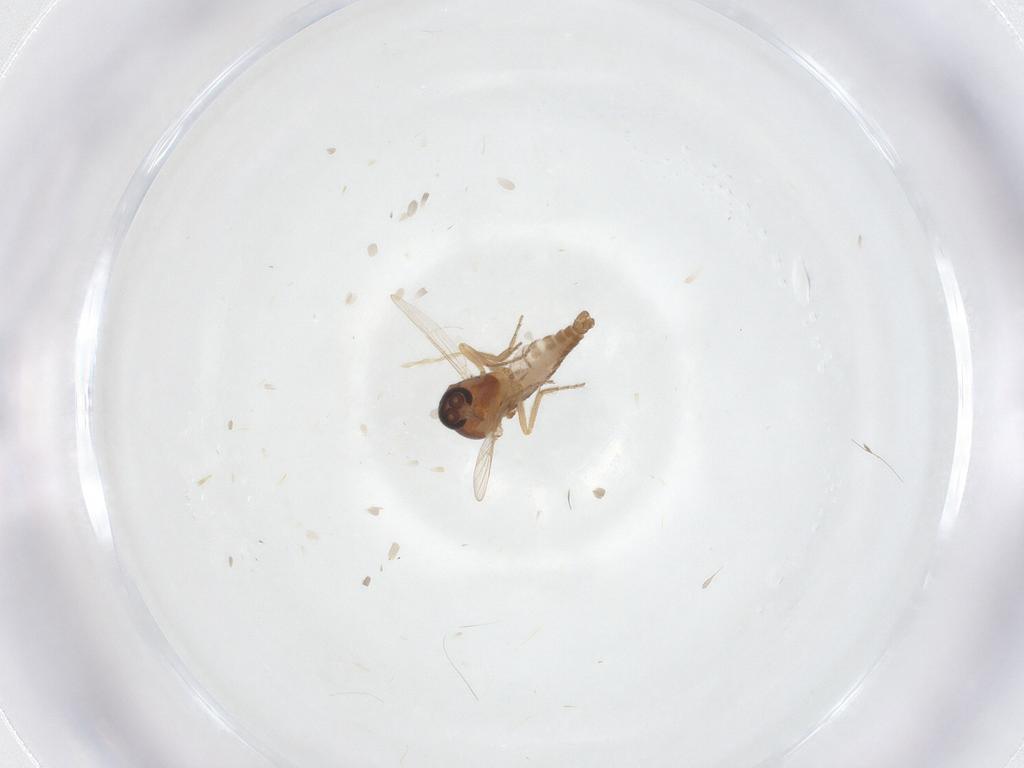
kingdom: Animalia
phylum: Arthropoda
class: Insecta
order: Diptera
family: Ceratopogonidae
